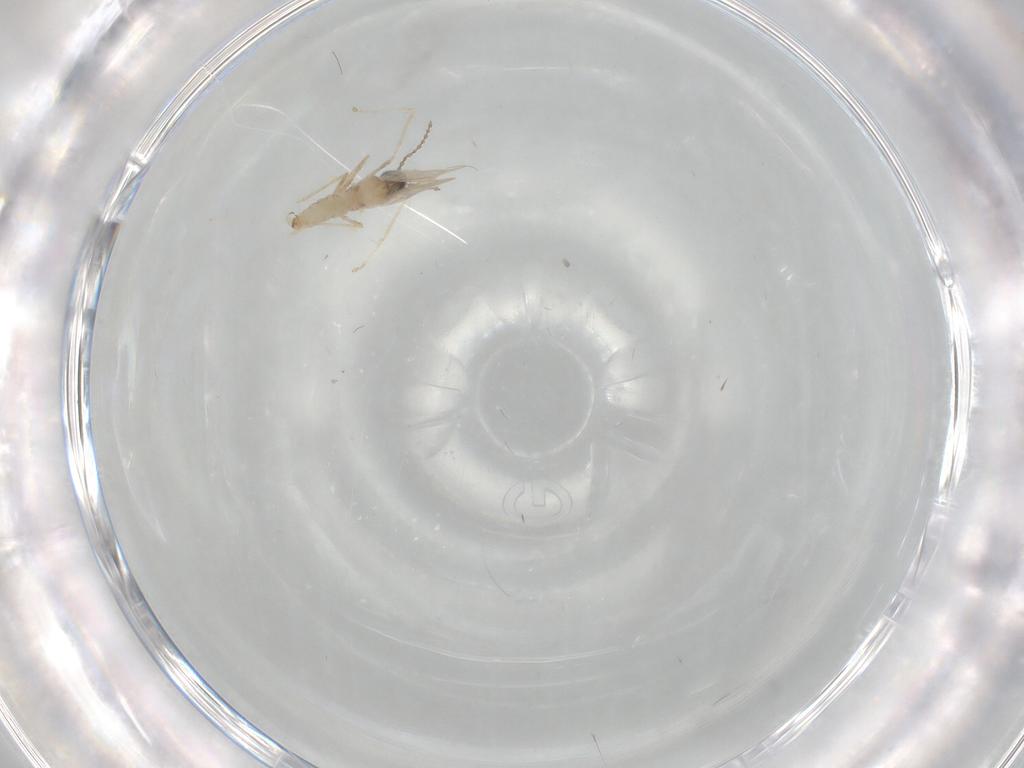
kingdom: Animalia
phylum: Arthropoda
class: Insecta
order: Diptera
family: Cecidomyiidae
